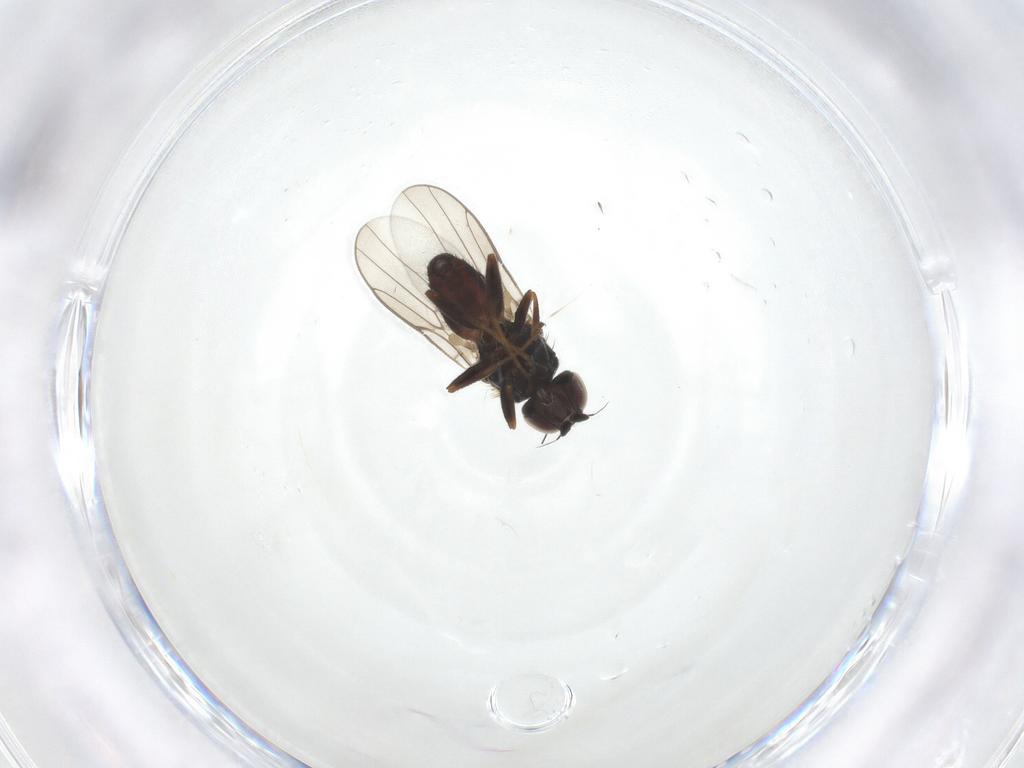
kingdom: Animalia
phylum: Arthropoda
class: Insecta
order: Diptera
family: Chloropidae
